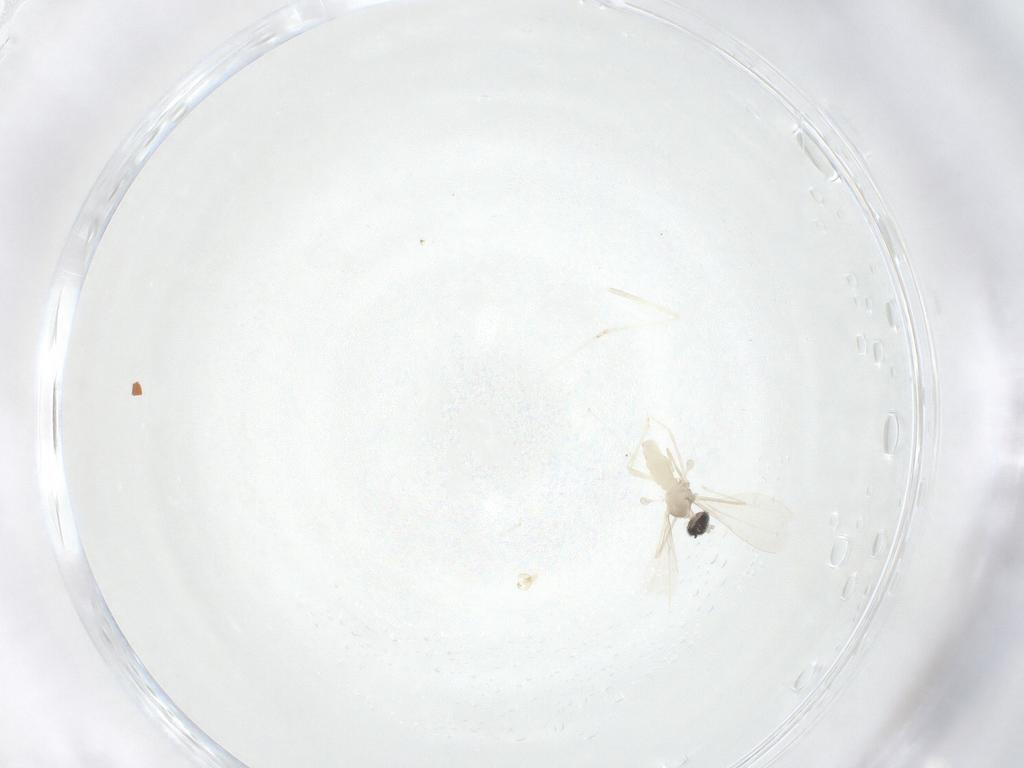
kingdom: Animalia
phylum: Arthropoda
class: Insecta
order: Diptera
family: Cecidomyiidae
